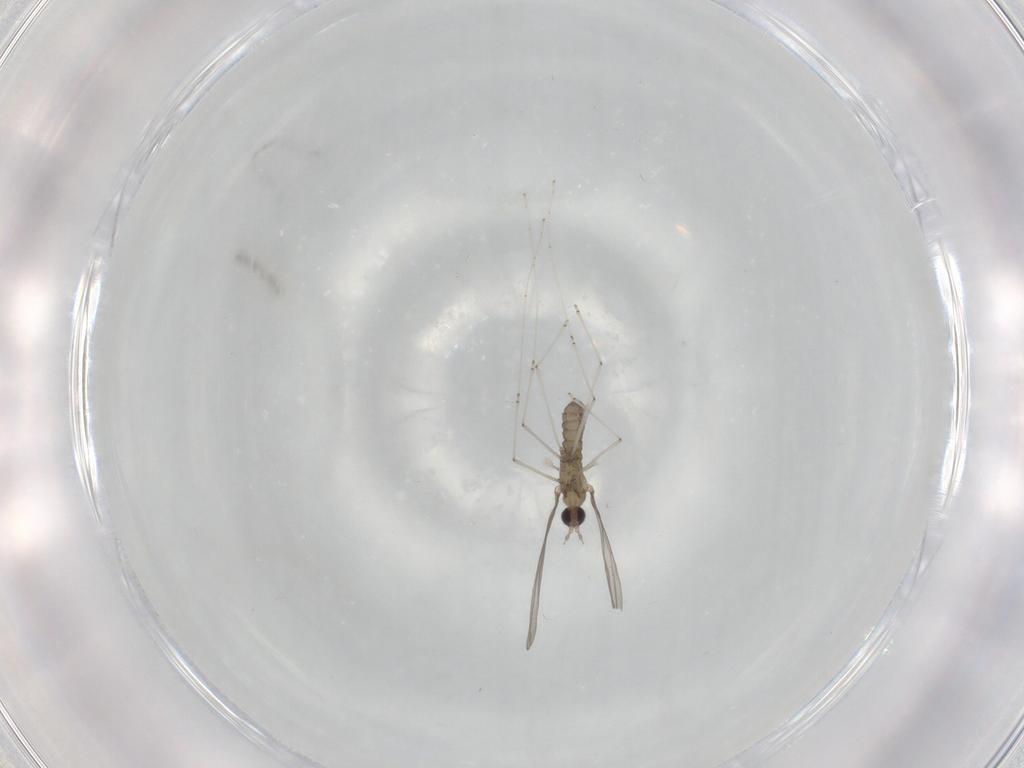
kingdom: Animalia
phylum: Arthropoda
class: Insecta
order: Diptera
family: Cecidomyiidae
